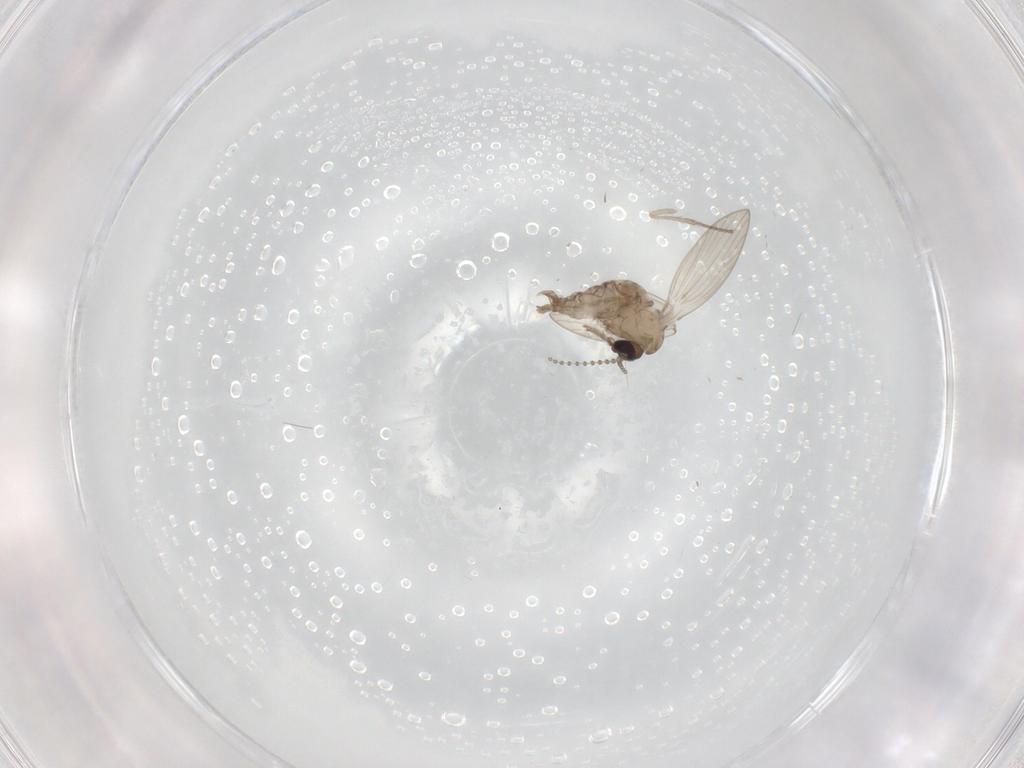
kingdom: Animalia
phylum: Arthropoda
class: Insecta
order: Diptera
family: Psychodidae
